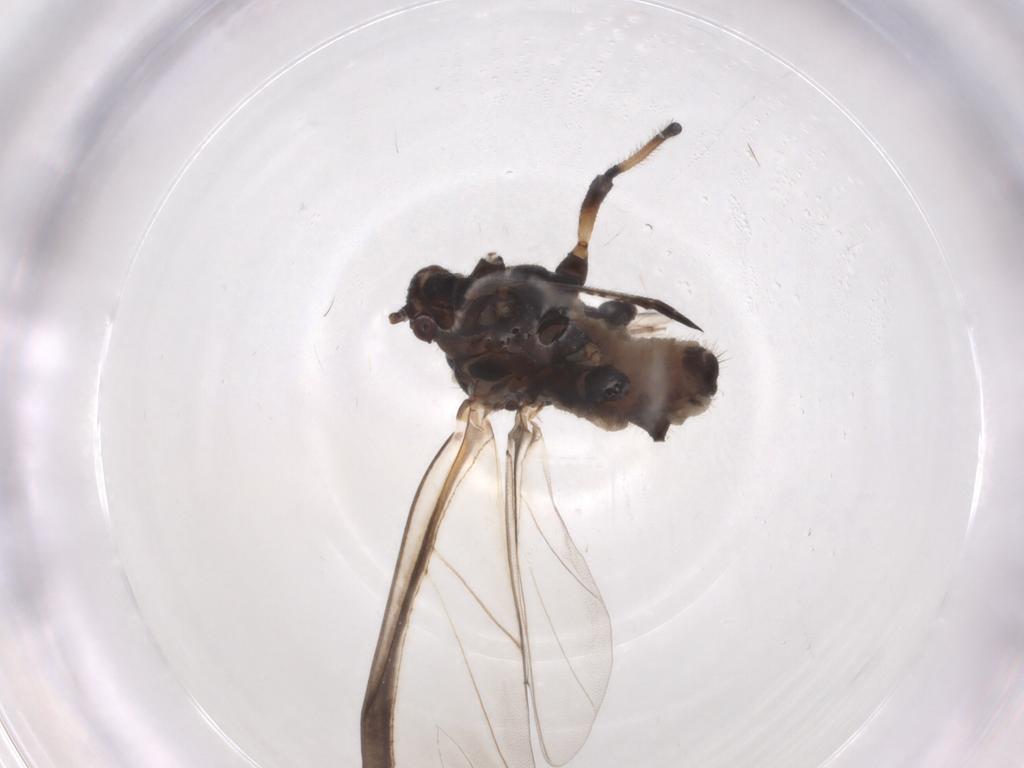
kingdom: Animalia
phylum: Arthropoda
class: Insecta
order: Hemiptera
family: Lachnidae
